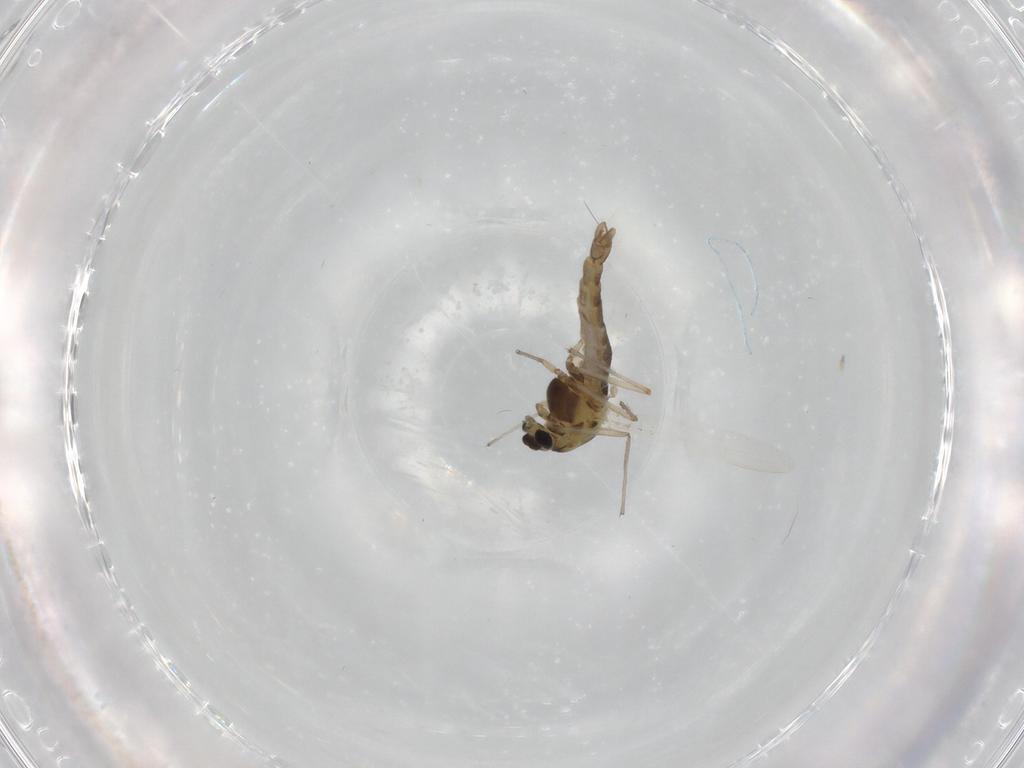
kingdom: Animalia
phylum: Arthropoda
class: Insecta
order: Diptera
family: Chironomidae
